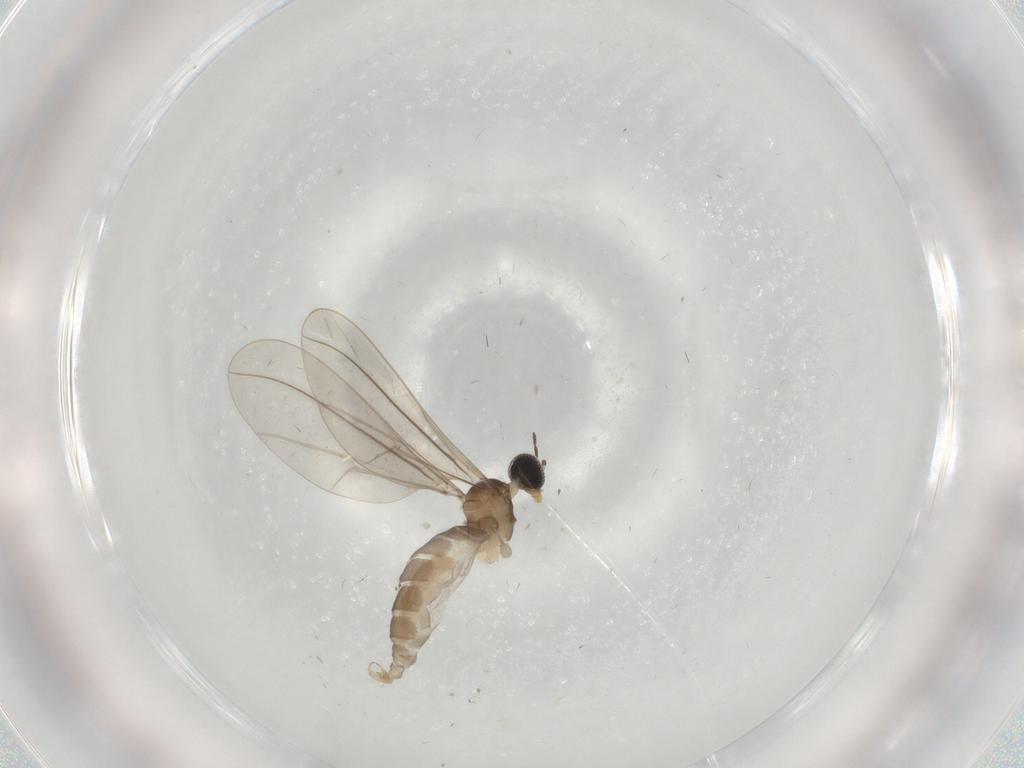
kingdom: Animalia
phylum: Arthropoda
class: Insecta
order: Diptera
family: Cecidomyiidae
